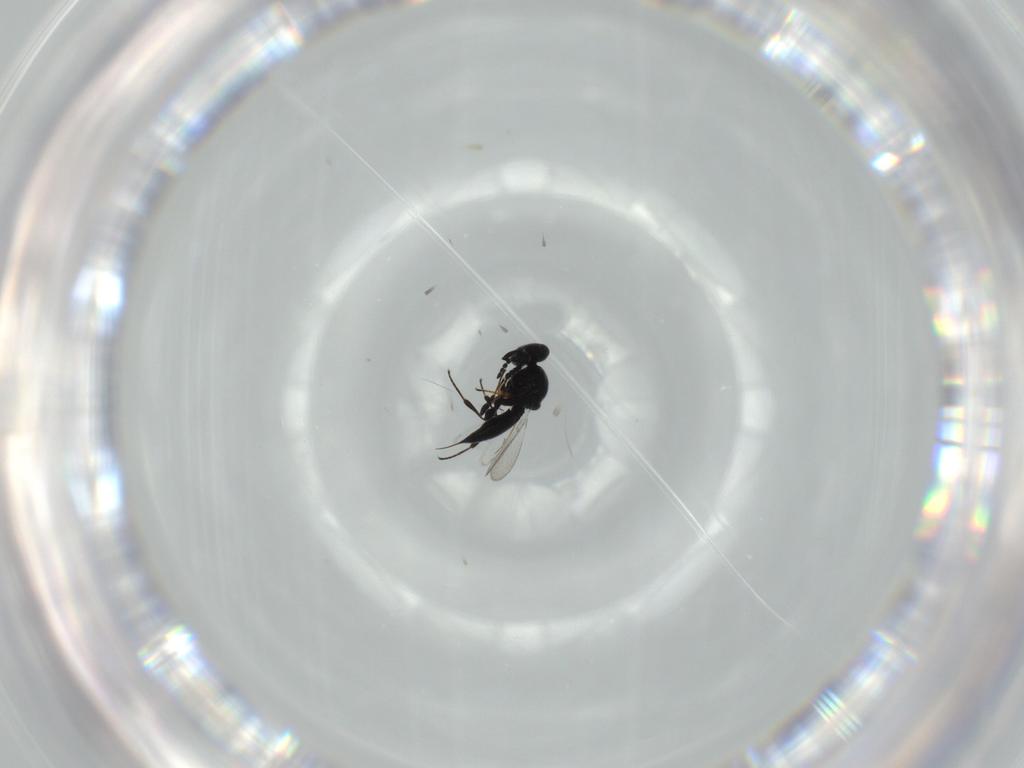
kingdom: Animalia
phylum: Arthropoda
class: Insecta
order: Hymenoptera
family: Platygastridae
